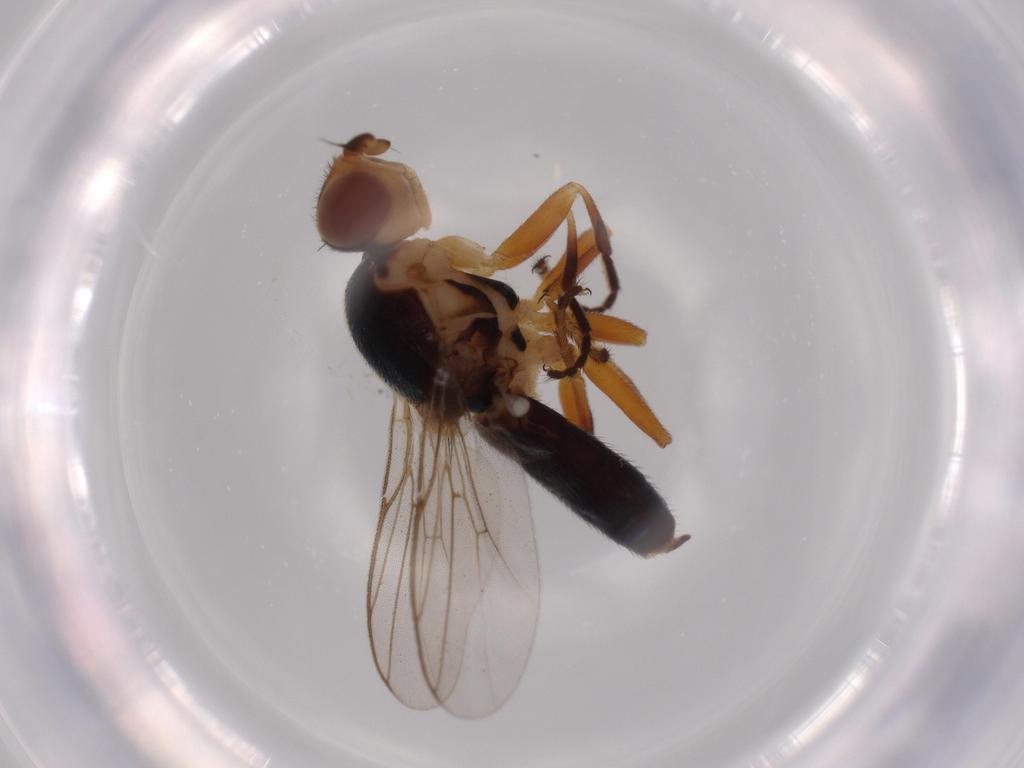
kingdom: Animalia
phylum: Arthropoda
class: Insecta
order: Diptera
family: Chloropidae
